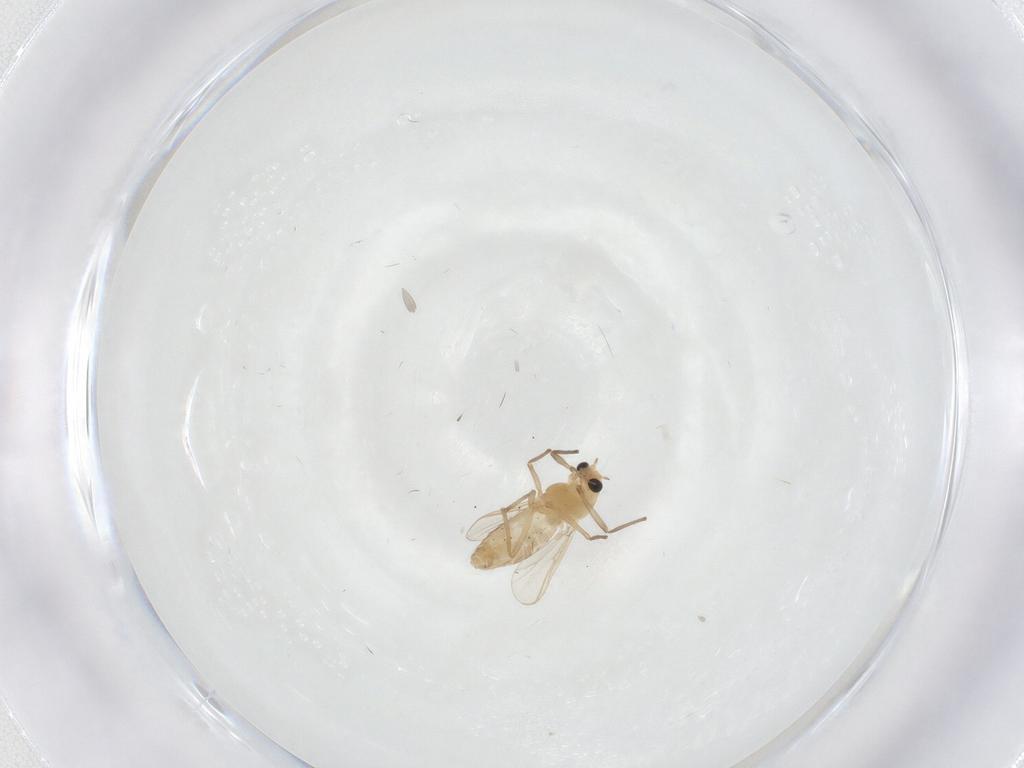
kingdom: Animalia
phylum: Arthropoda
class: Insecta
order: Diptera
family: Chironomidae
